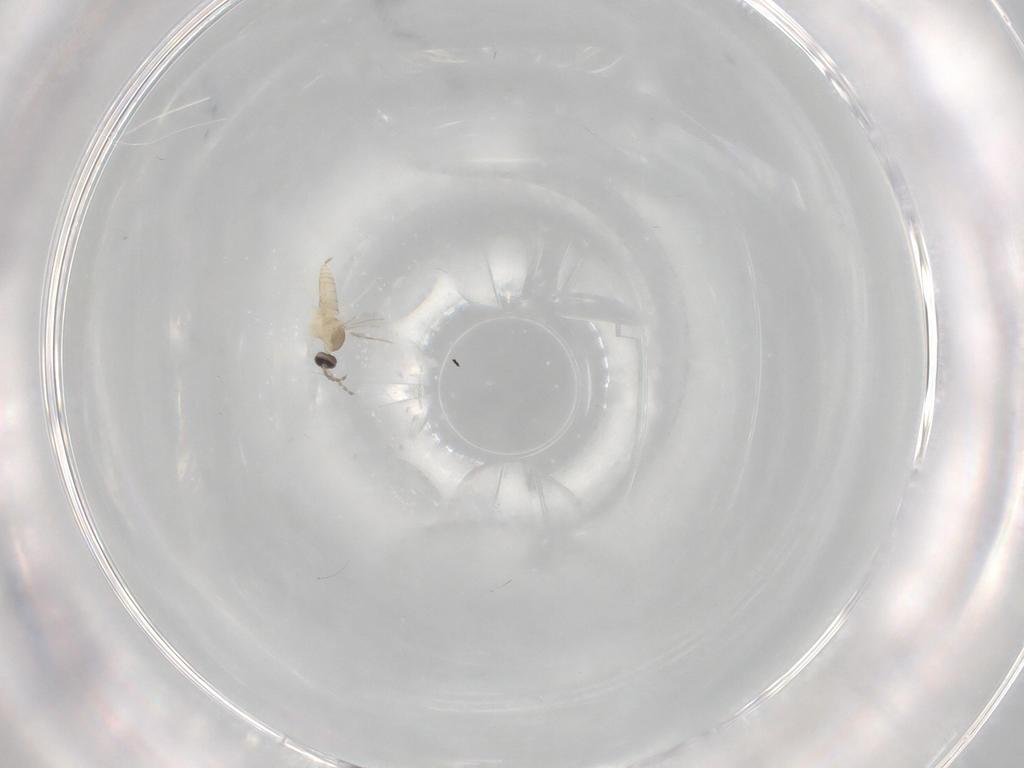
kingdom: Animalia
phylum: Arthropoda
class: Insecta
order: Diptera
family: Cecidomyiidae
